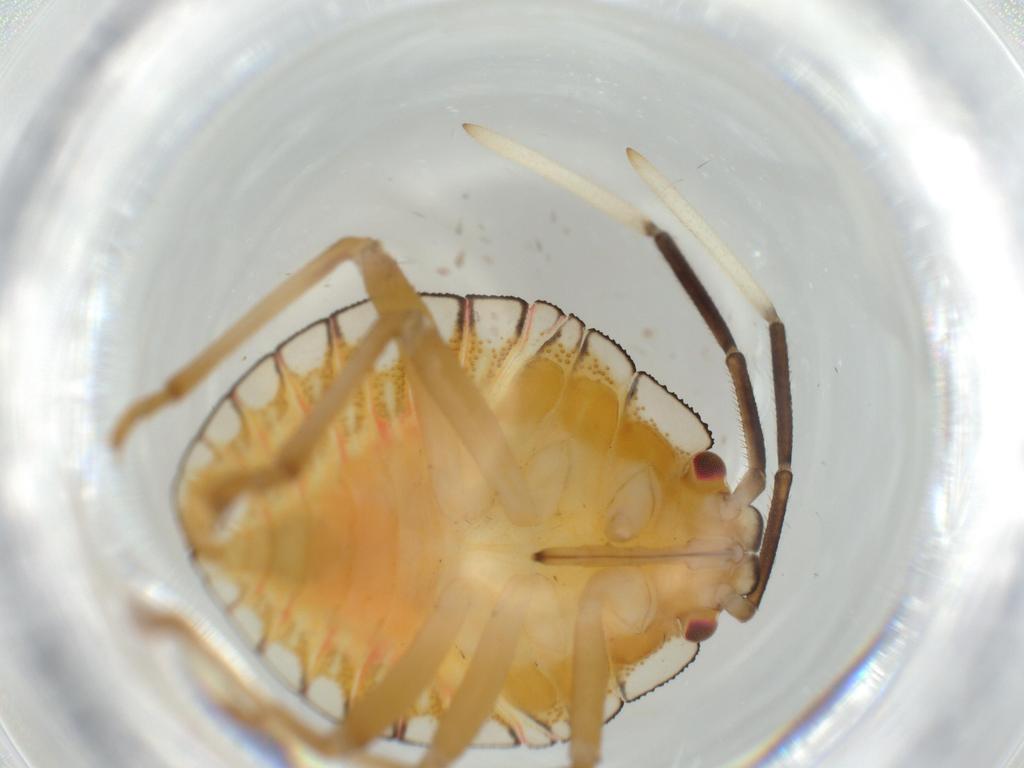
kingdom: Animalia
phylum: Arthropoda
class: Insecta
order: Hemiptera
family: Pentatomidae
